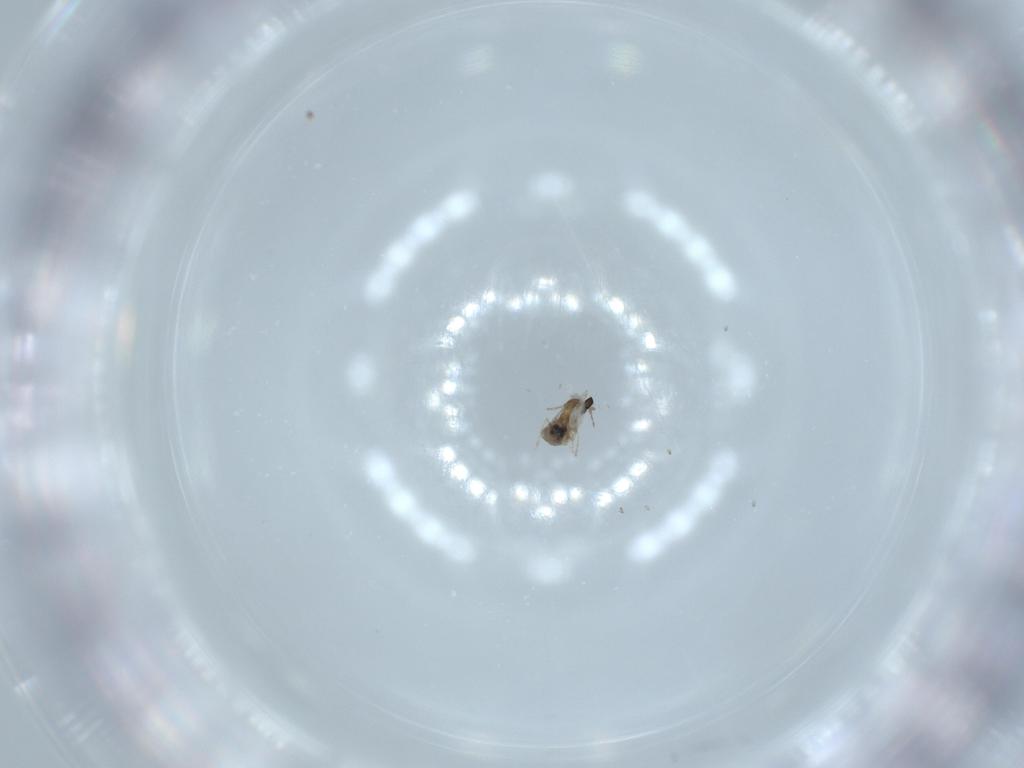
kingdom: Animalia
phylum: Arthropoda
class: Insecta
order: Diptera
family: Cecidomyiidae
